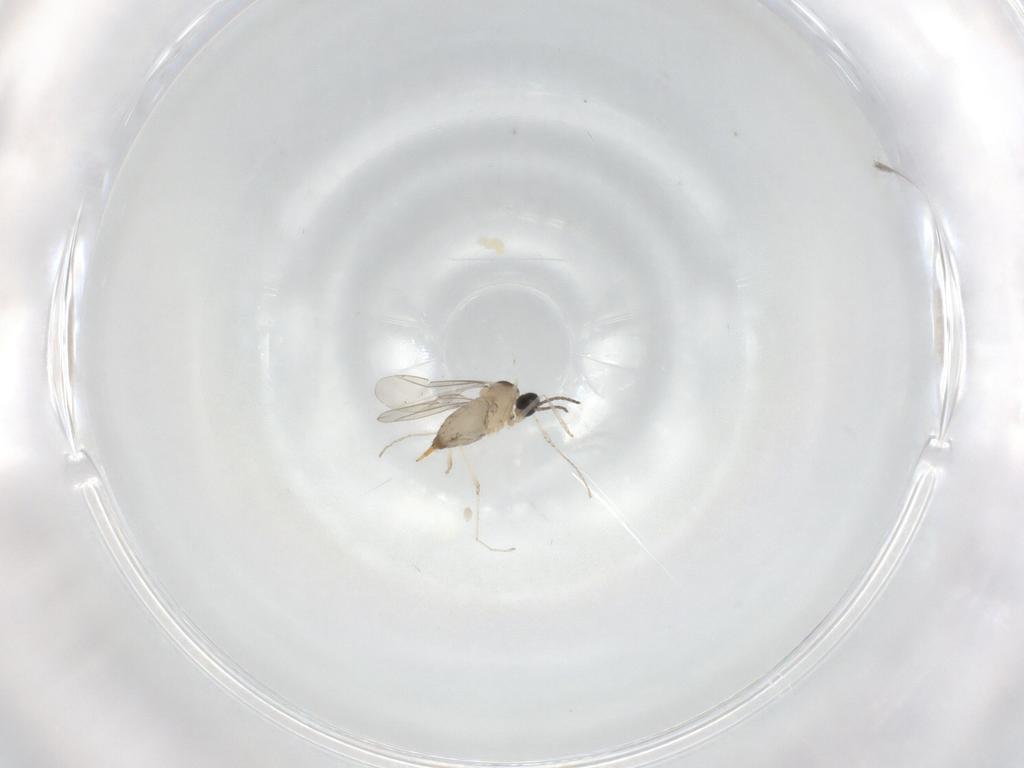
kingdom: Animalia
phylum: Arthropoda
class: Insecta
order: Diptera
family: Cecidomyiidae
